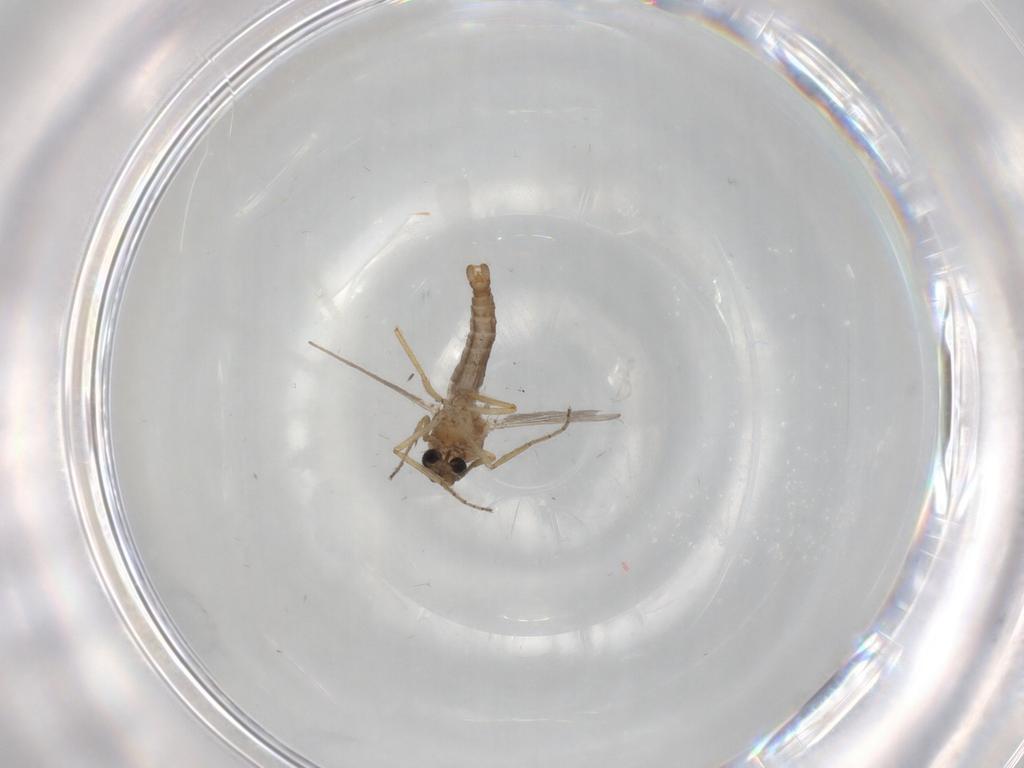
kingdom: Animalia
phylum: Arthropoda
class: Insecta
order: Diptera
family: Ceratopogonidae
